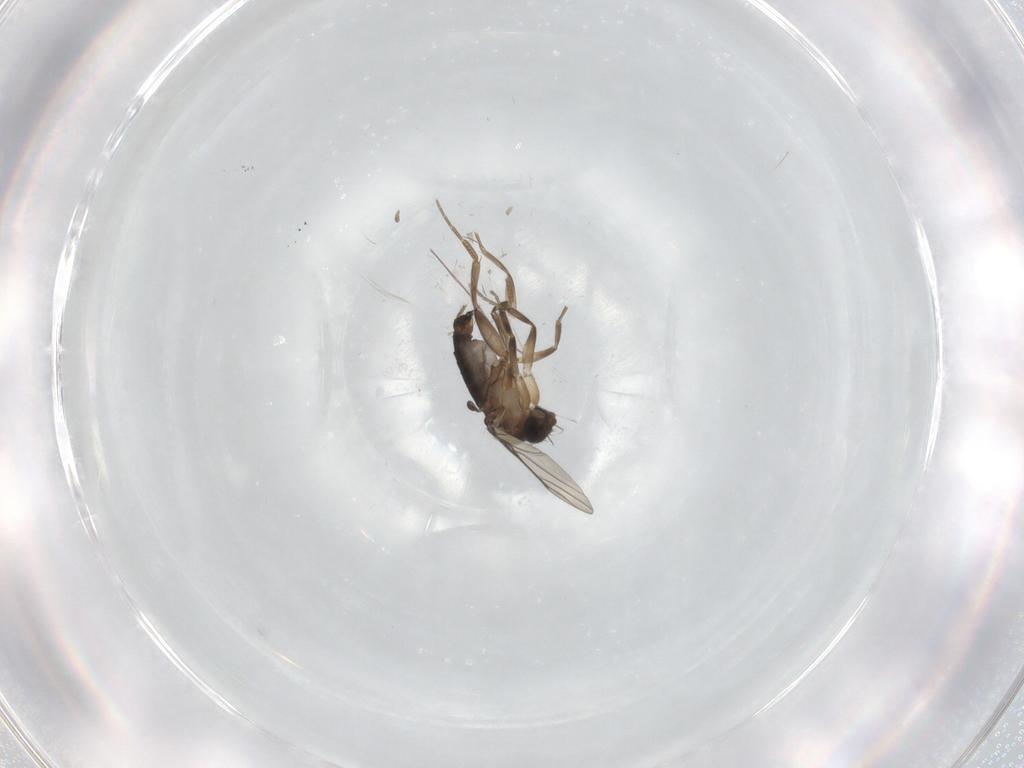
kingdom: Animalia
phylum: Arthropoda
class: Insecta
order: Diptera
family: Phoridae
